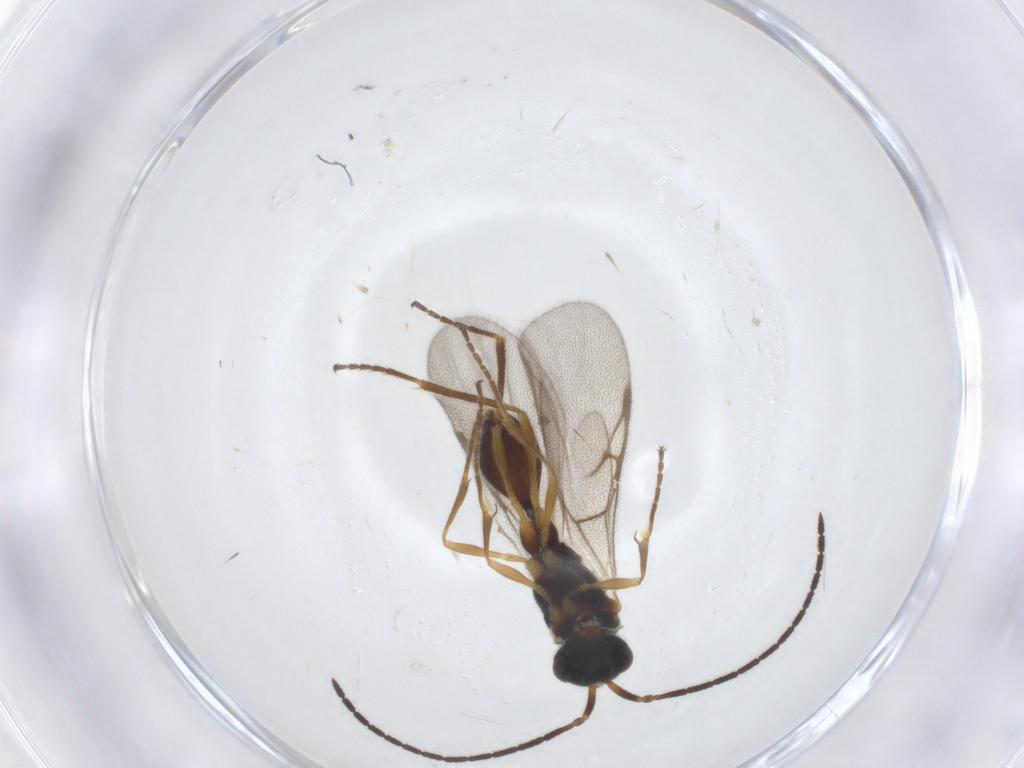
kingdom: Animalia
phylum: Arthropoda
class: Insecta
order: Hymenoptera
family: Diapriidae
